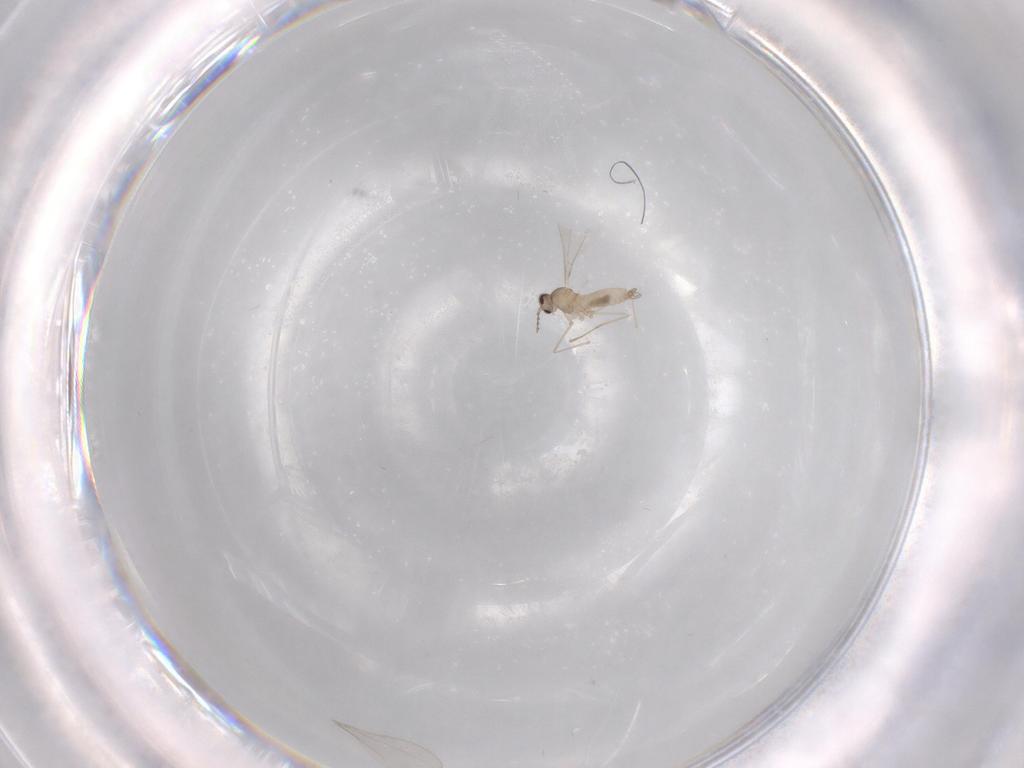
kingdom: Animalia
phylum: Arthropoda
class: Insecta
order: Diptera
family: Cecidomyiidae
